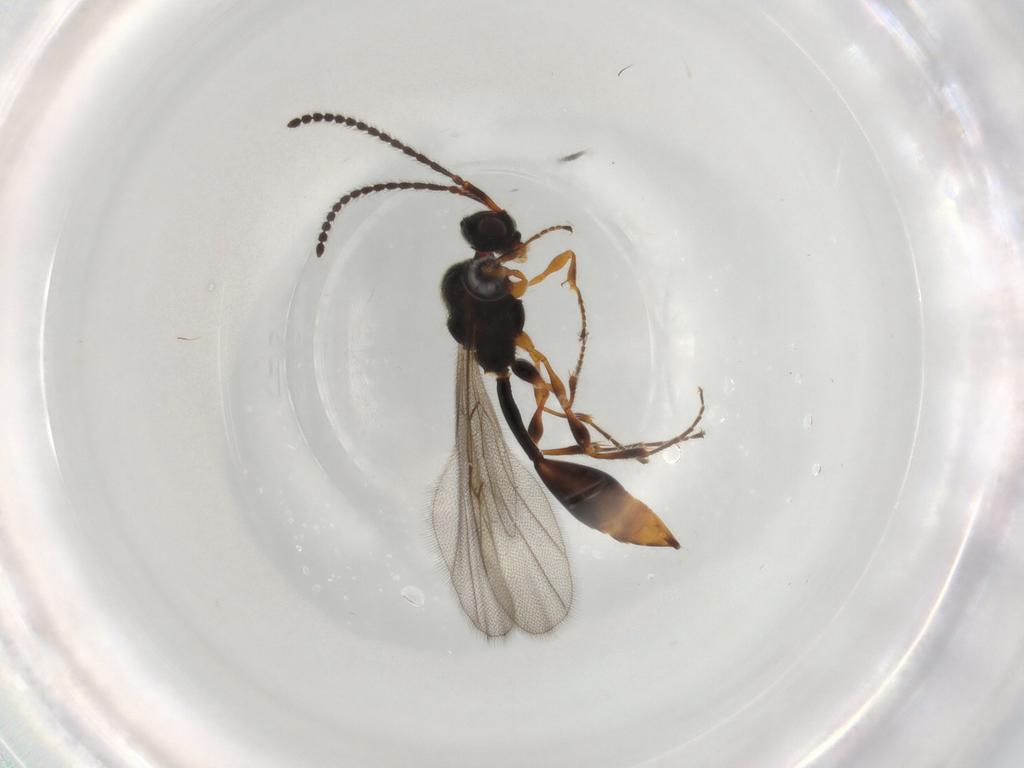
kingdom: Animalia
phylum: Arthropoda
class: Insecta
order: Hymenoptera
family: Diapriidae
